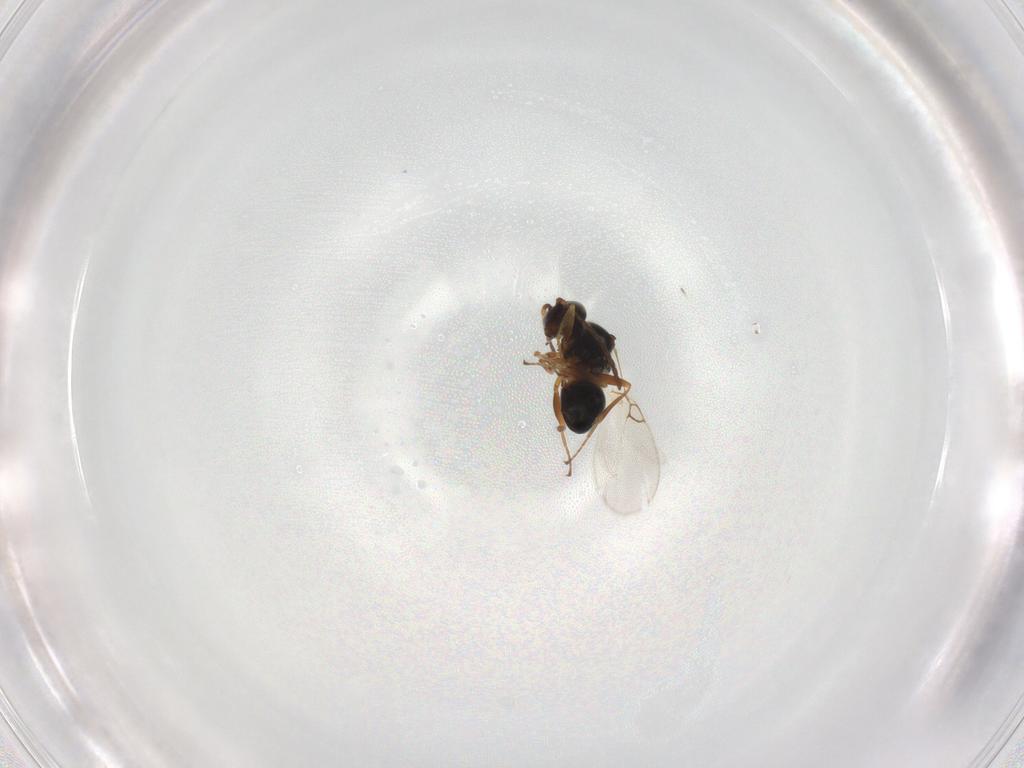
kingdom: Animalia
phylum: Arthropoda
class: Insecta
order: Hymenoptera
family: Figitidae
